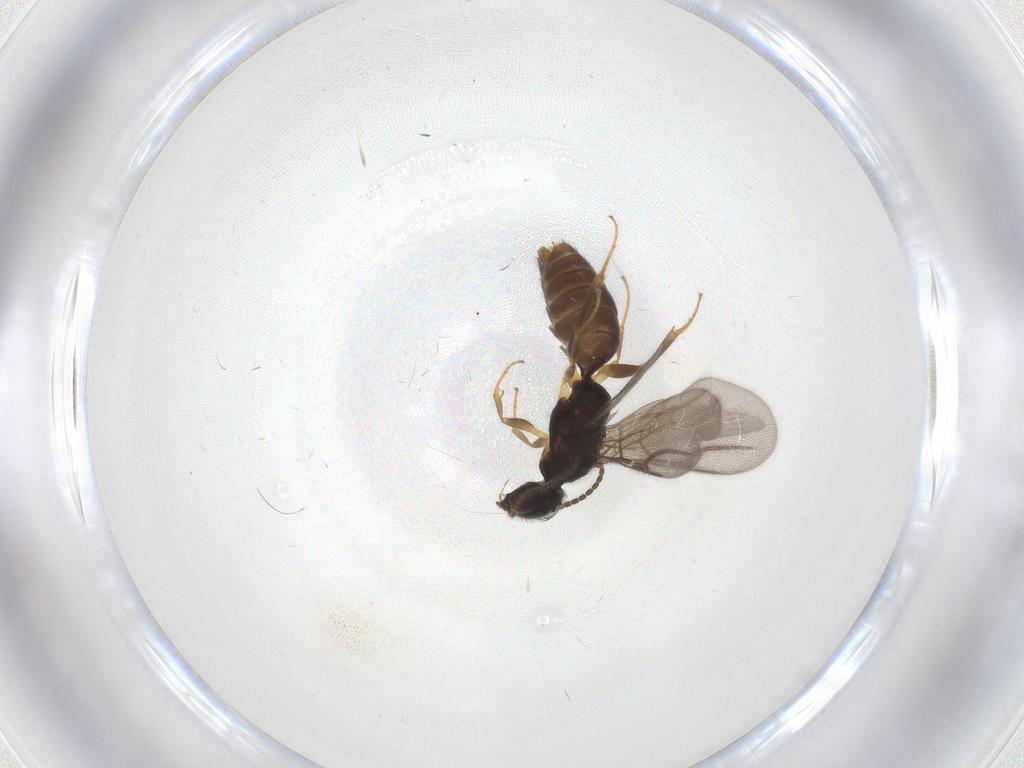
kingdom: Animalia
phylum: Arthropoda
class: Insecta
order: Hymenoptera
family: Bethylidae
